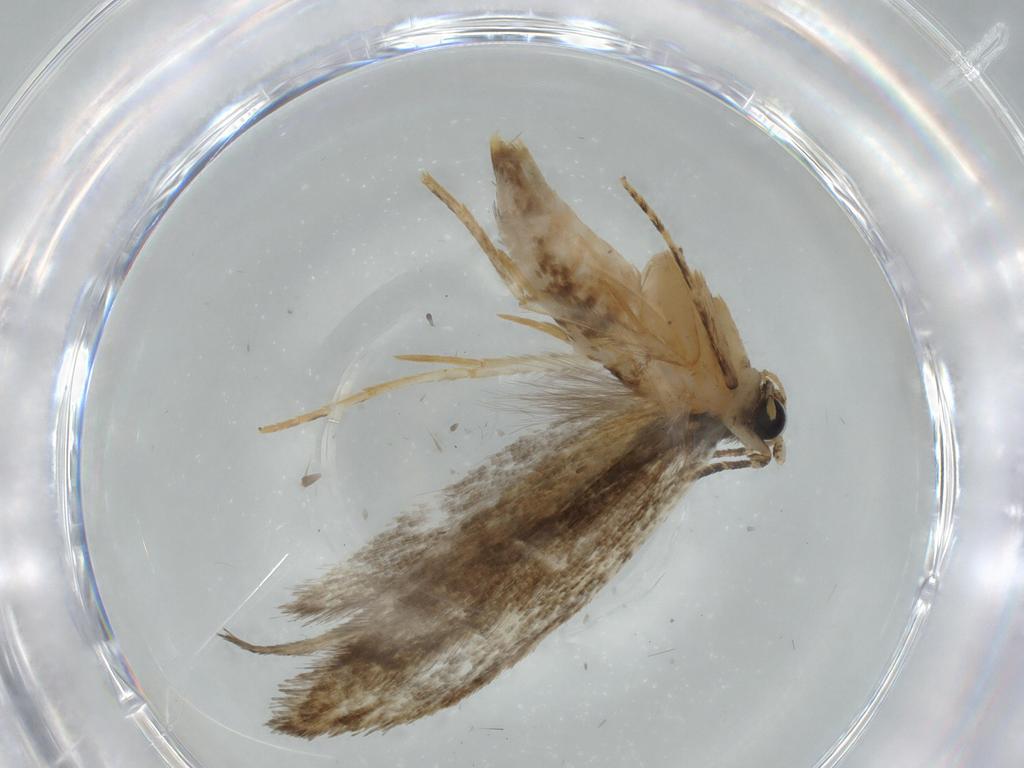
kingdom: Animalia
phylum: Arthropoda
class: Insecta
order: Lepidoptera
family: Tineidae
